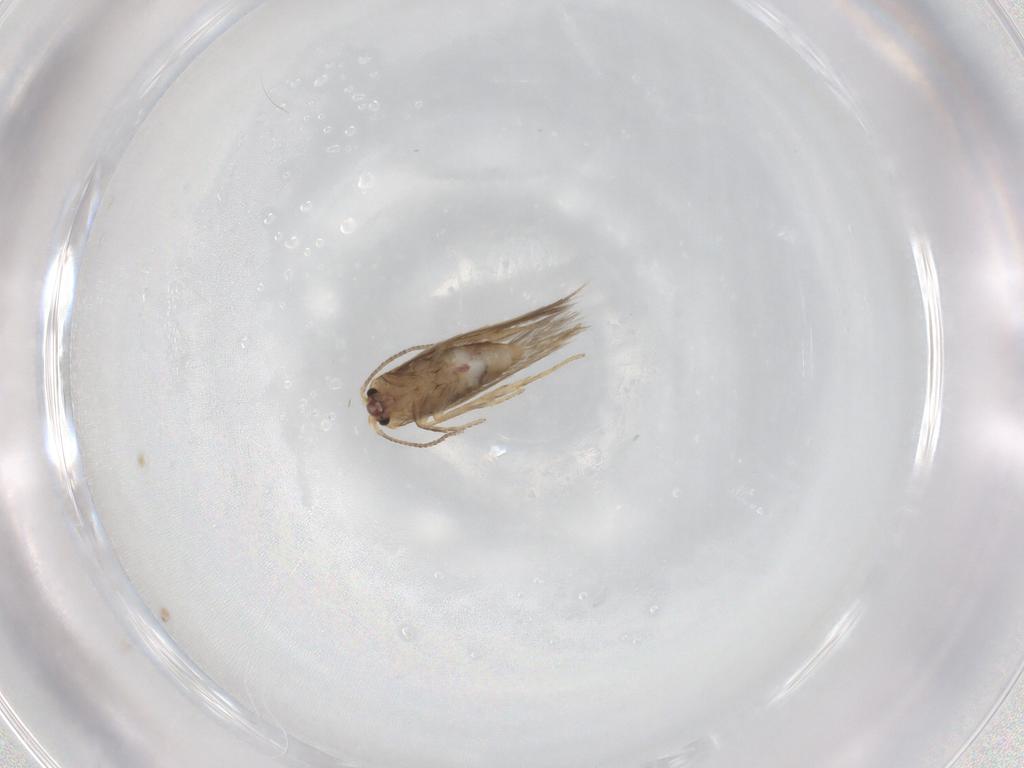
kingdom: Animalia
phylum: Arthropoda
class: Insecta
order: Lepidoptera
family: Nepticulidae
